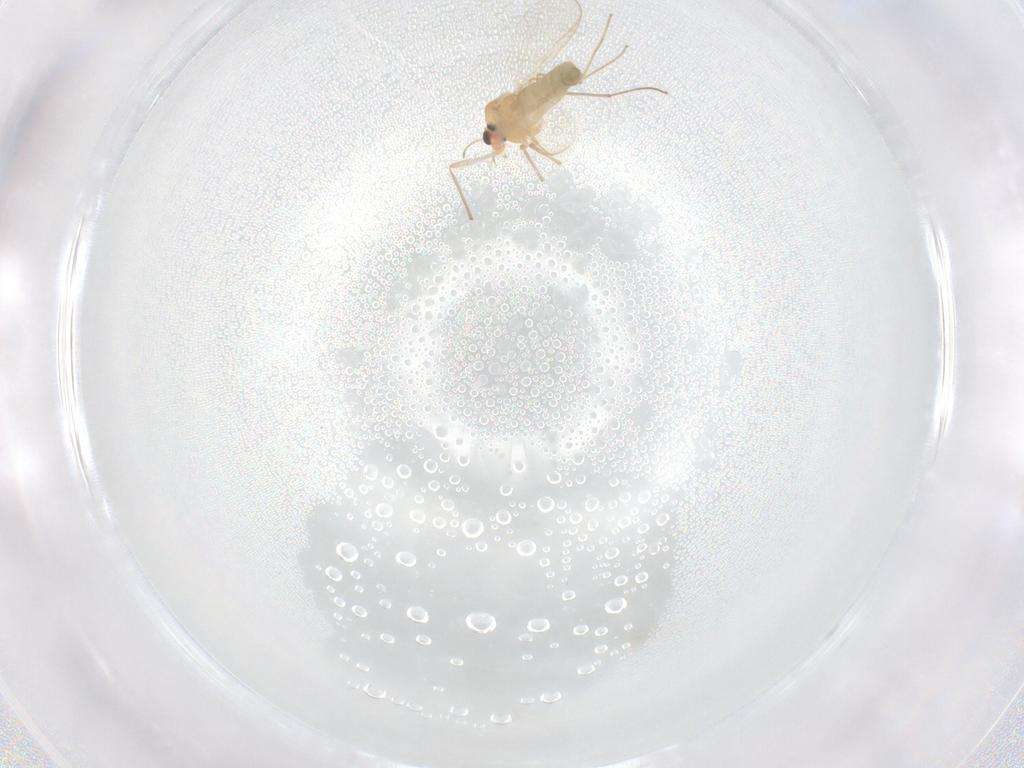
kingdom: Animalia
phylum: Arthropoda
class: Insecta
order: Diptera
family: Chironomidae
